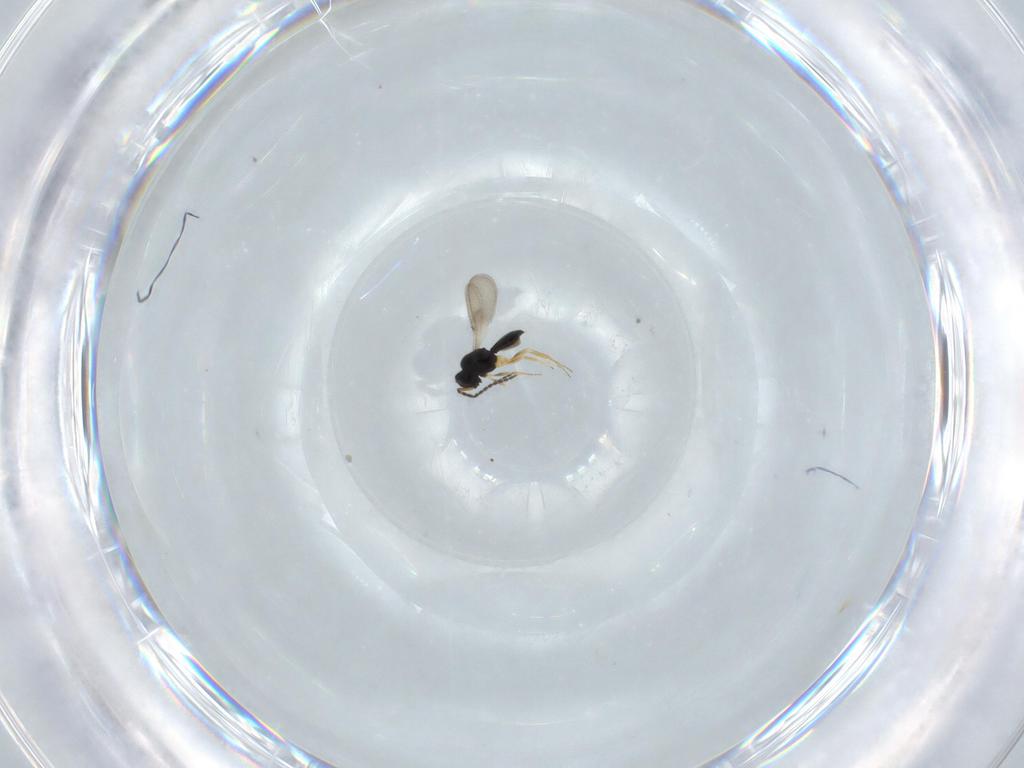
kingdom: Animalia
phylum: Arthropoda
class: Insecta
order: Hymenoptera
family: Scelionidae
